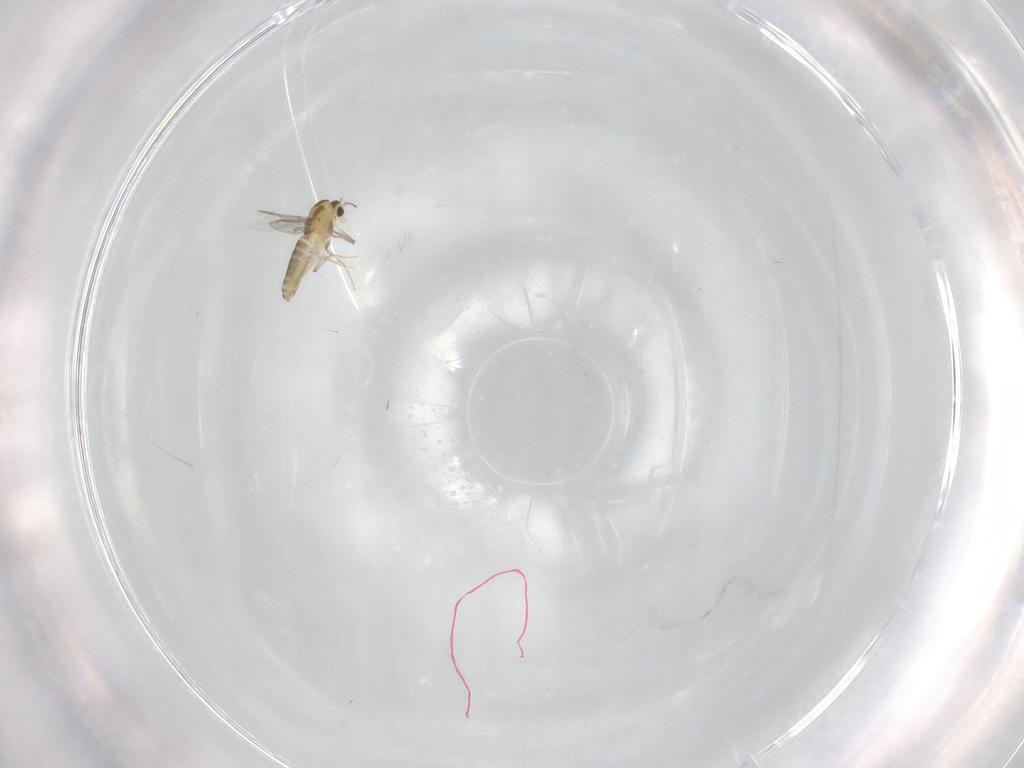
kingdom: Animalia
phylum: Arthropoda
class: Insecta
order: Diptera
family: Chironomidae
